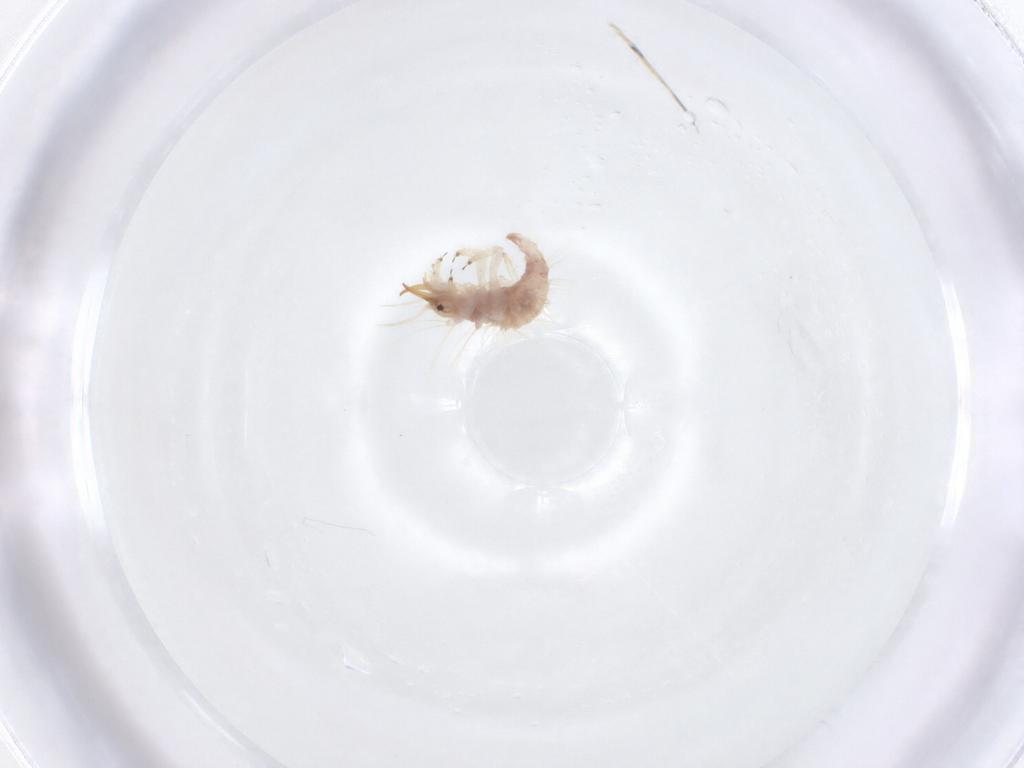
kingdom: Animalia
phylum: Arthropoda
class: Insecta
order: Neuroptera
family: Chrysopidae
